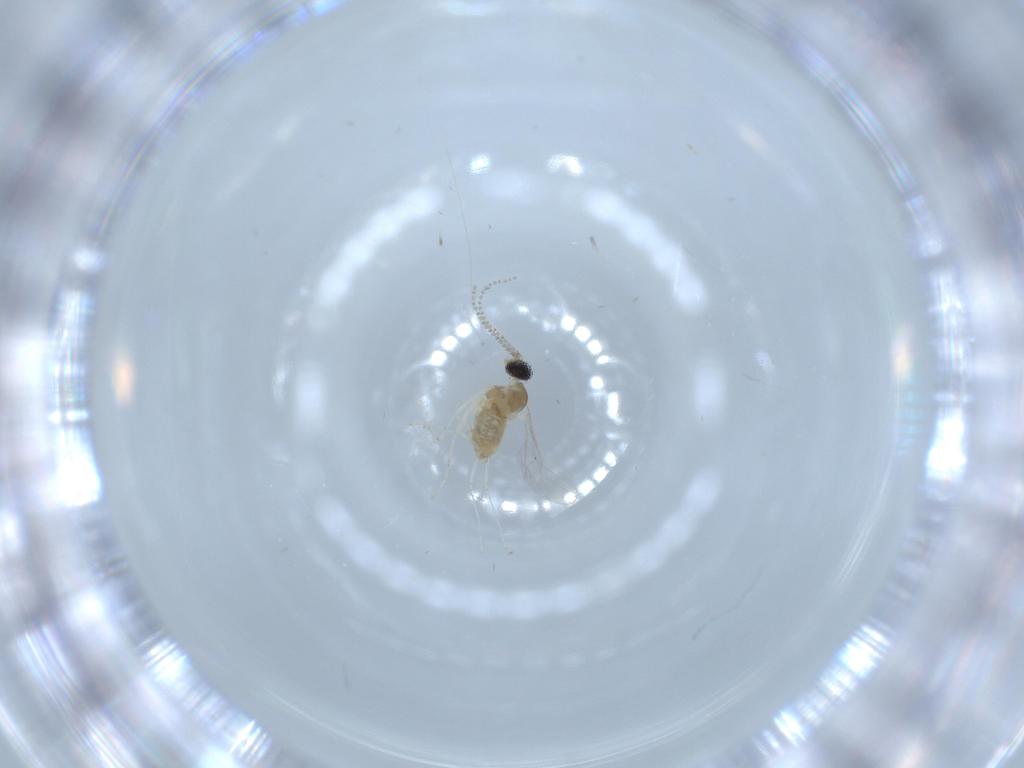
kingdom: Animalia
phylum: Arthropoda
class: Insecta
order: Diptera
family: Cecidomyiidae
